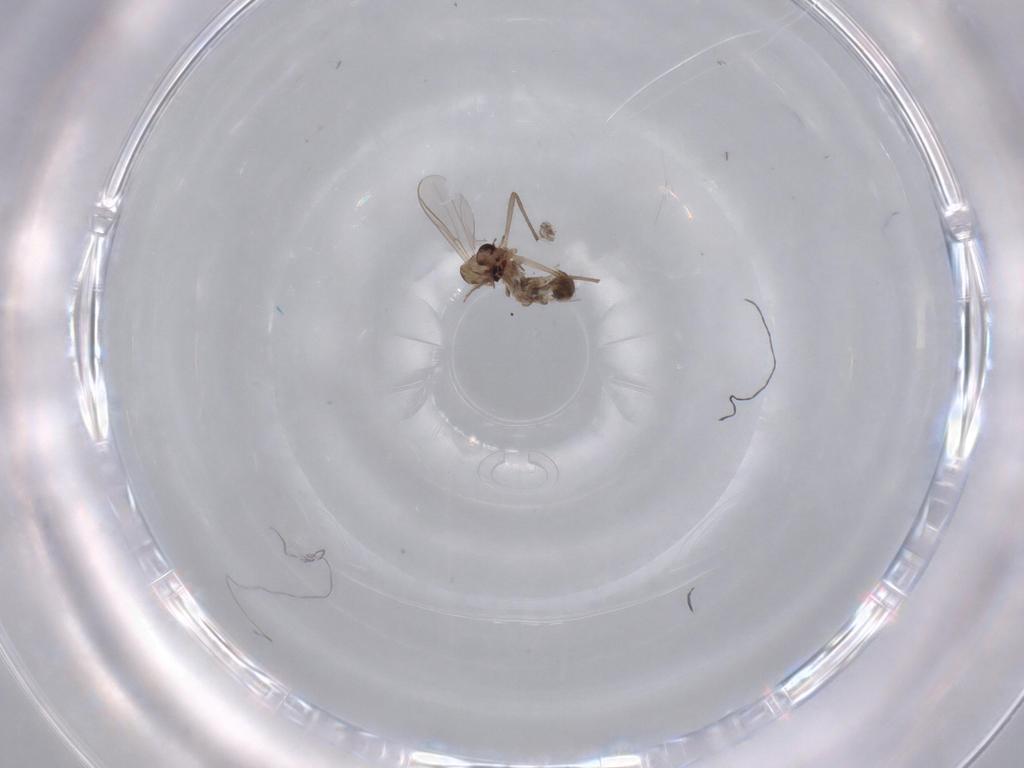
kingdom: Animalia
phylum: Arthropoda
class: Insecta
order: Diptera
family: Chironomidae
